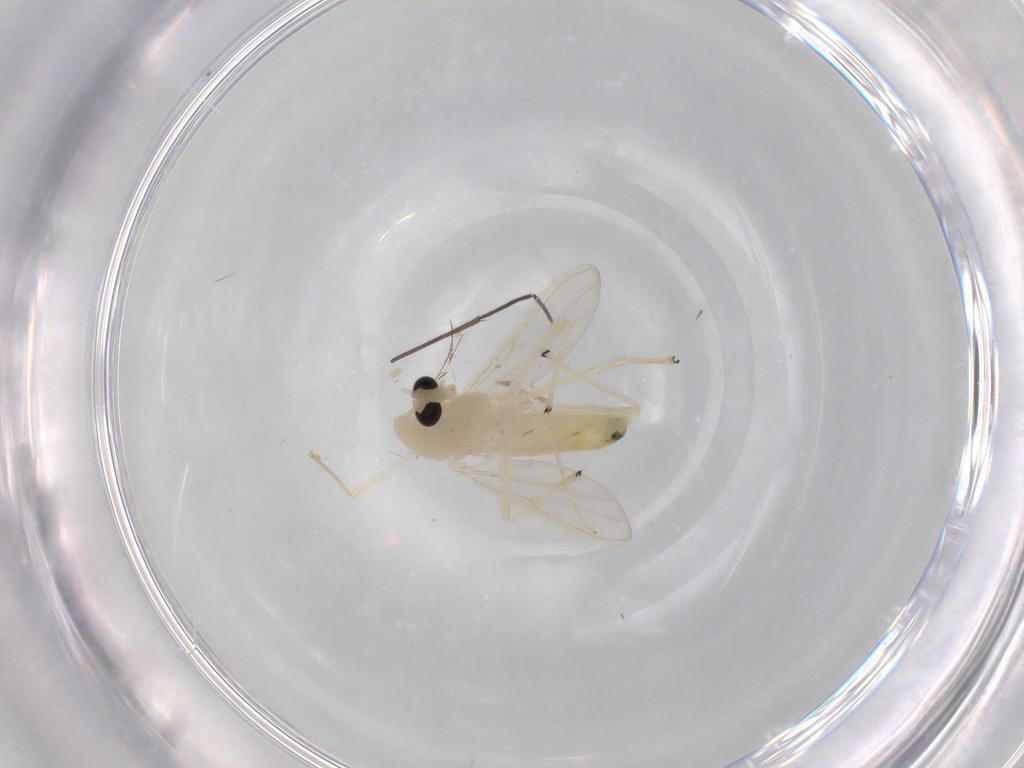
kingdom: Animalia
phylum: Arthropoda
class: Insecta
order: Diptera
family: Chironomidae
